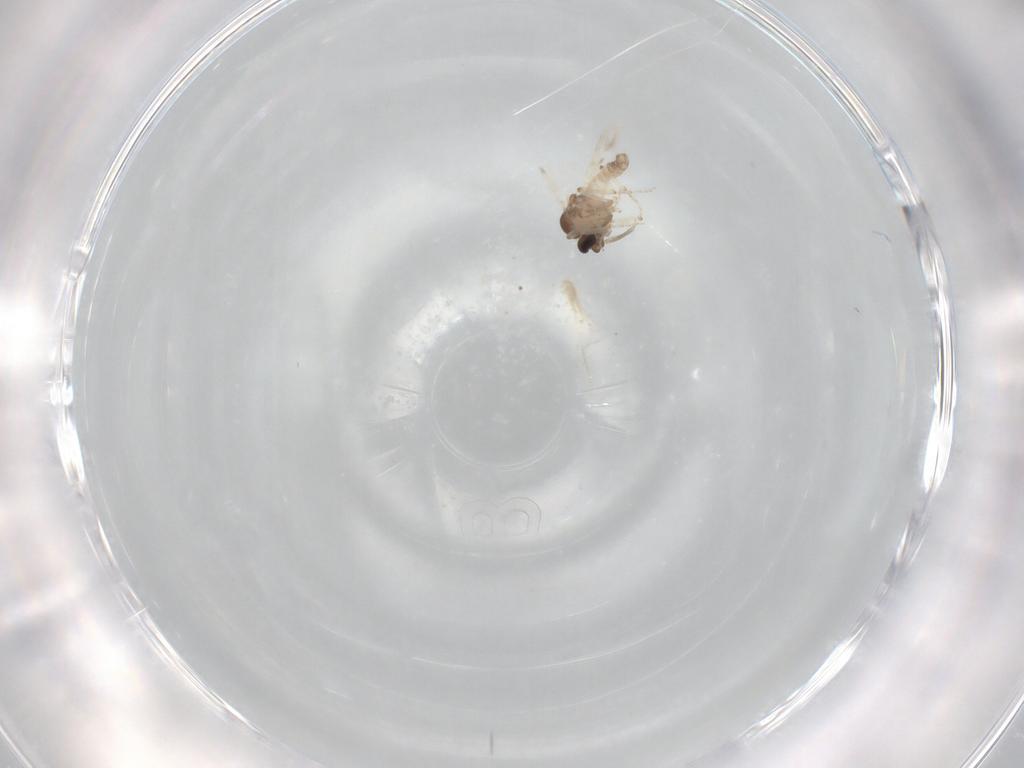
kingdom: Animalia
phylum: Arthropoda
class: Insecta
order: Diptera
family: Ceratopogonidae
